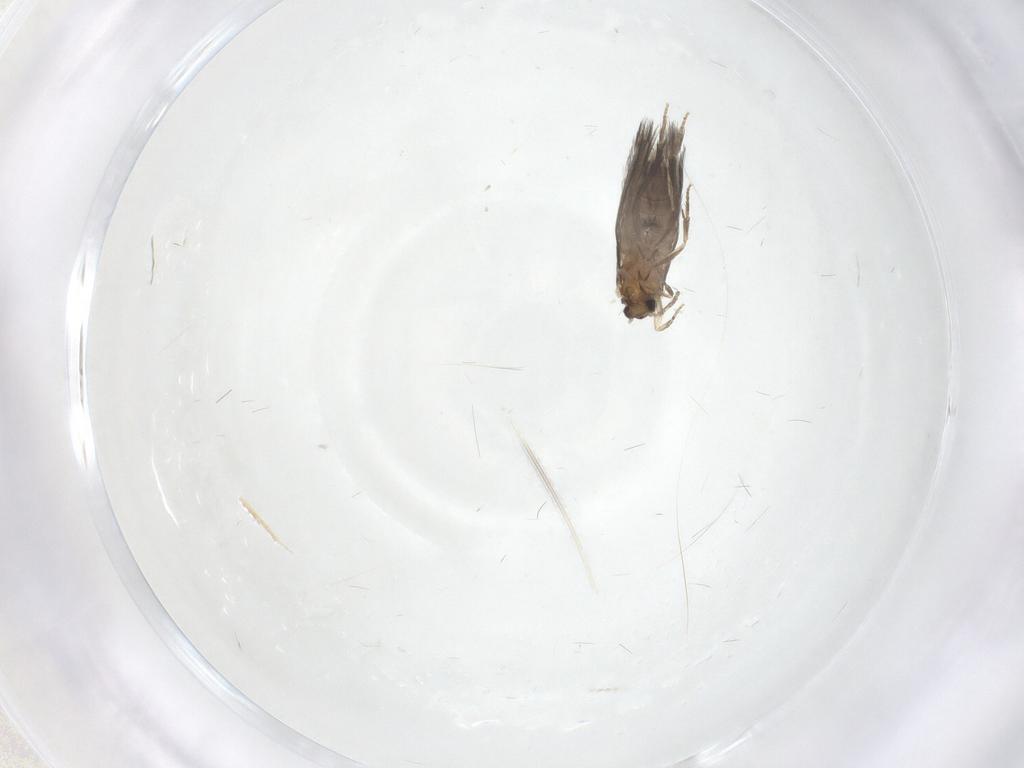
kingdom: Animalia
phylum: Arthropoda
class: Insecta
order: Trichoptera
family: Hydroptilidae
